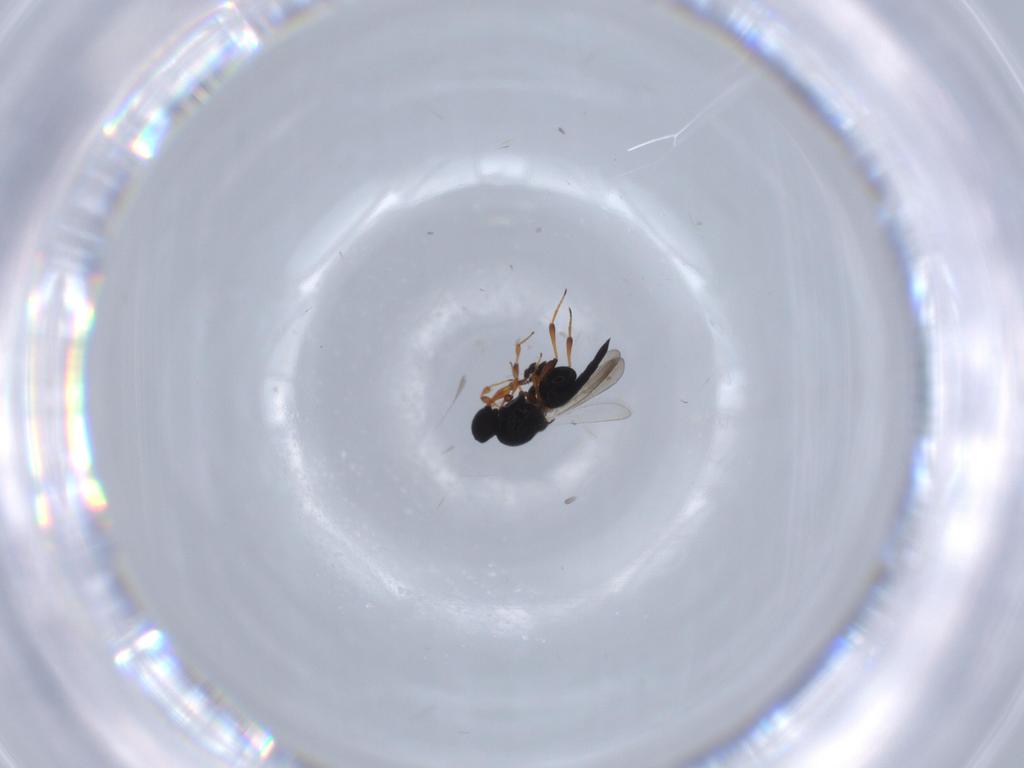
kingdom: Animalia
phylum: Arthropoda
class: Insecta
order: Hymenoptera
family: Platygastridae
